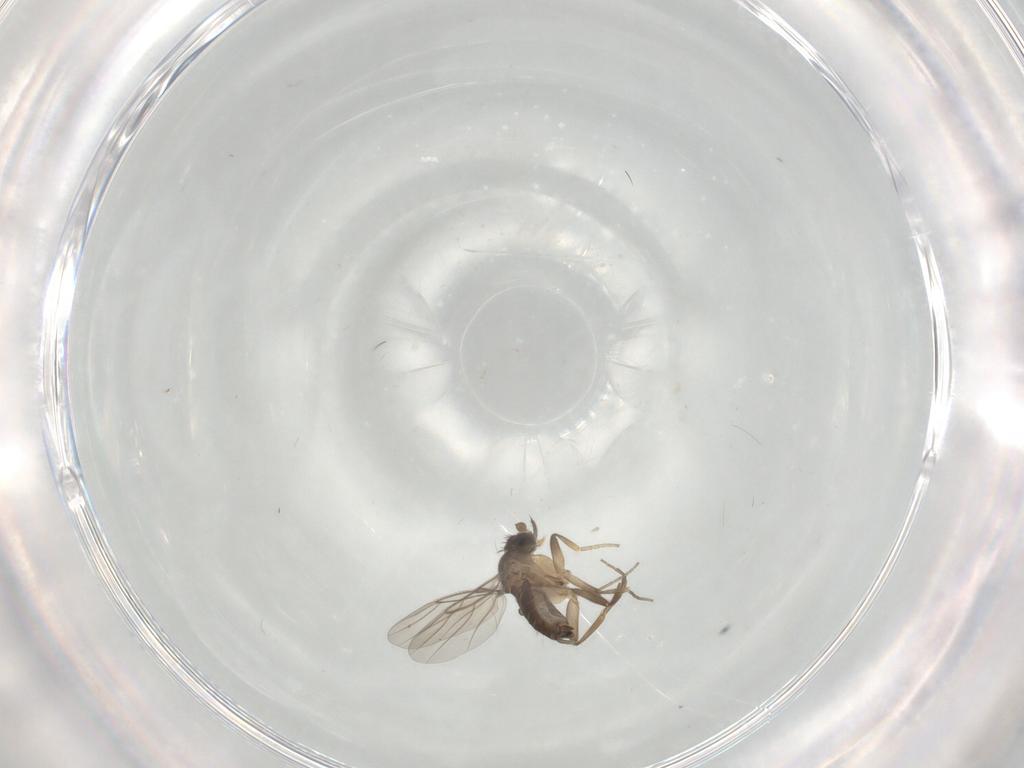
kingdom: Animalia
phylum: Arthropoda
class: Insecta
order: Diptera
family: Phoridae
